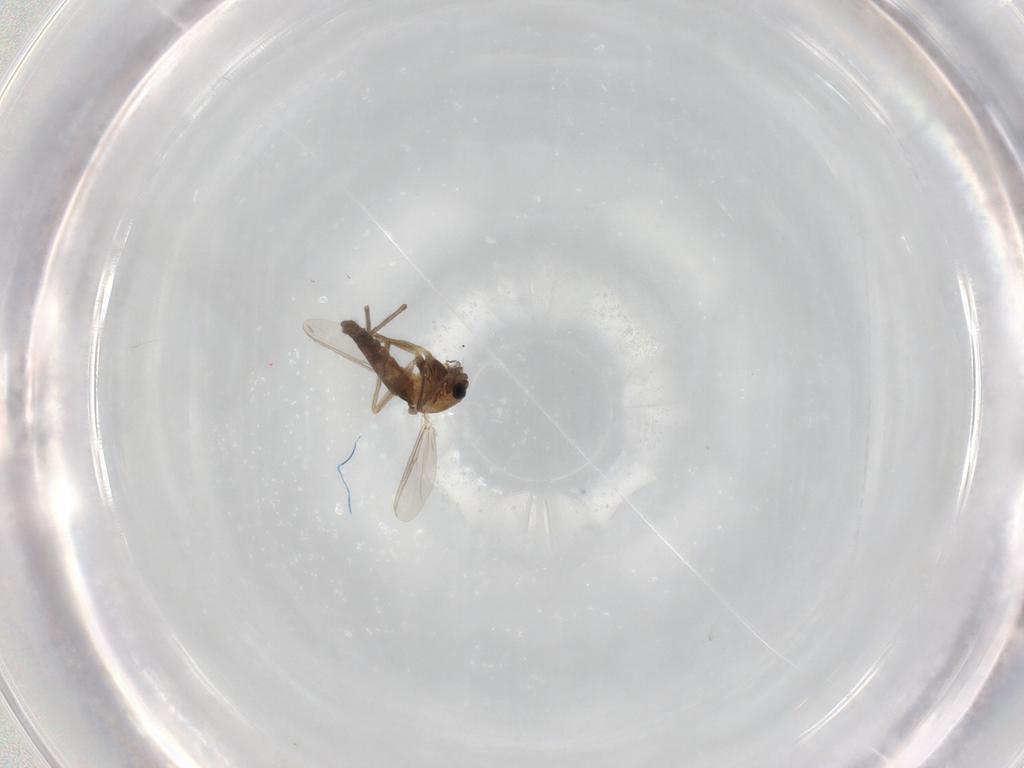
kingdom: Animalia
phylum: Arthropoda
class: Insecta
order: Diptera
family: Chironomidae
